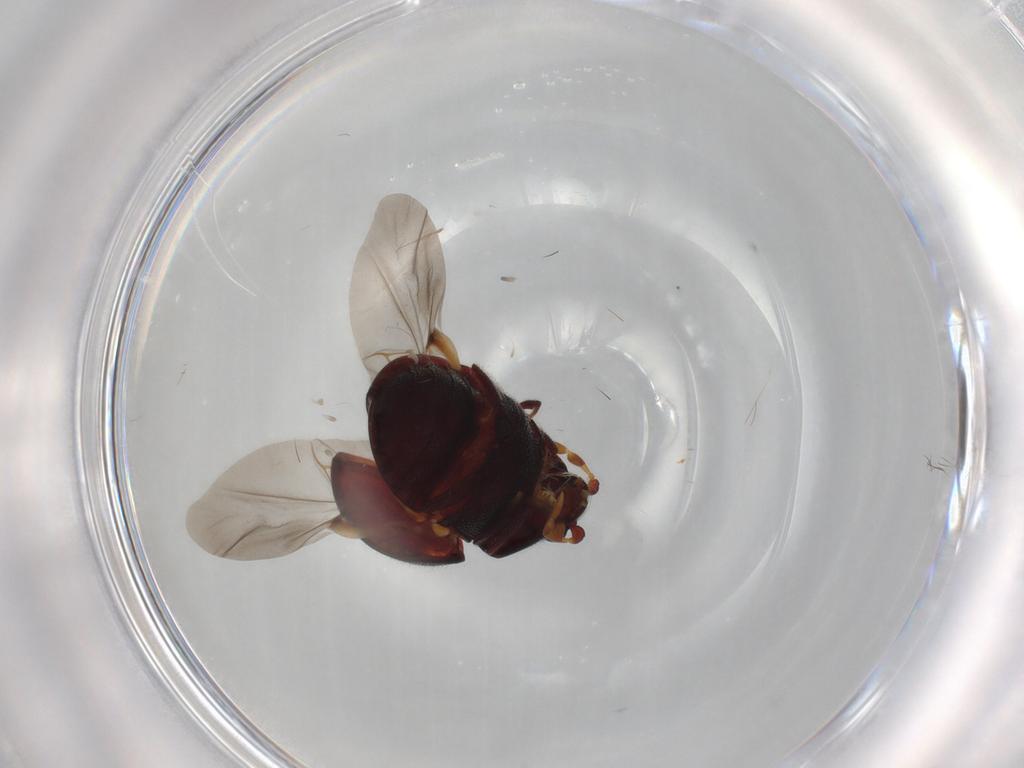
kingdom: Animalia
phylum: Arthropoda
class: Insecta
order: Coleoptera
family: Ptinidae
